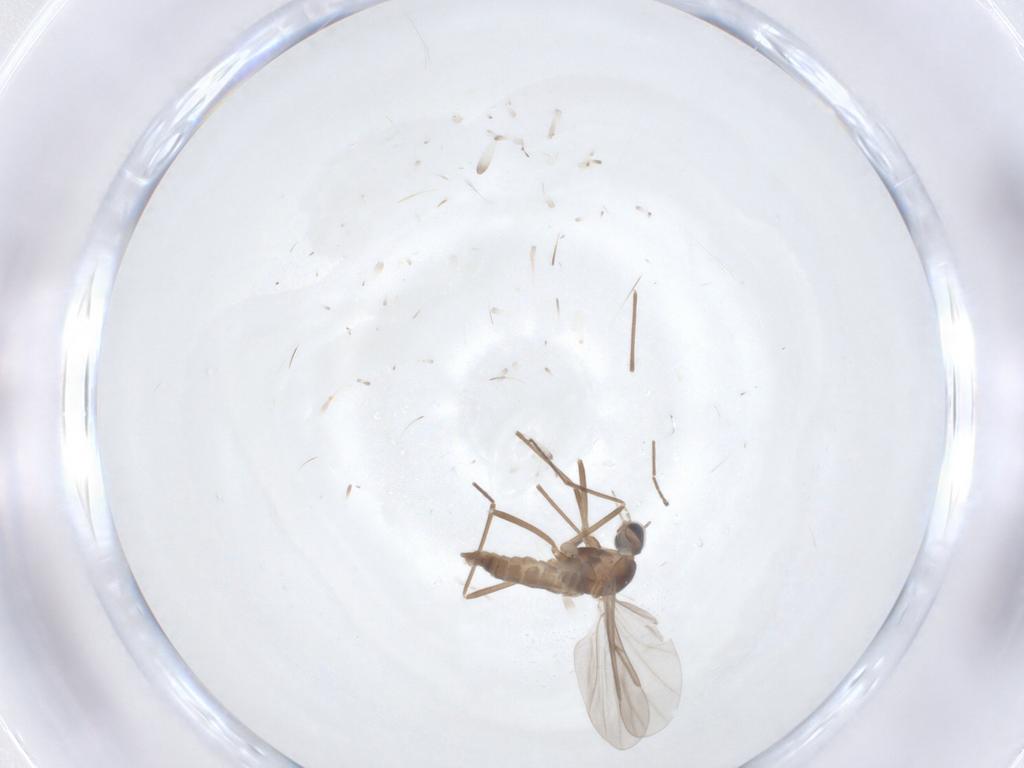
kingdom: Animalia
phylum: Arthropoda
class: Insecta
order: Diptera
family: Cecidomyiidae
